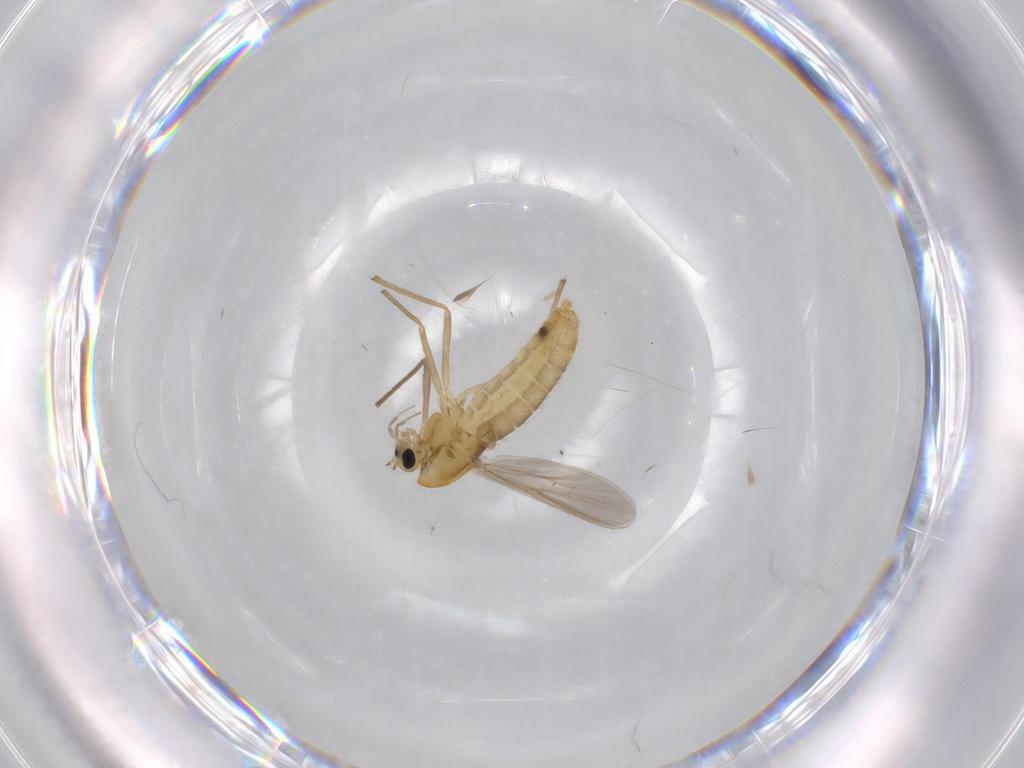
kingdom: Animalia
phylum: Arthropoda
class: Insecta
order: Diptera
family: Chironomidae
